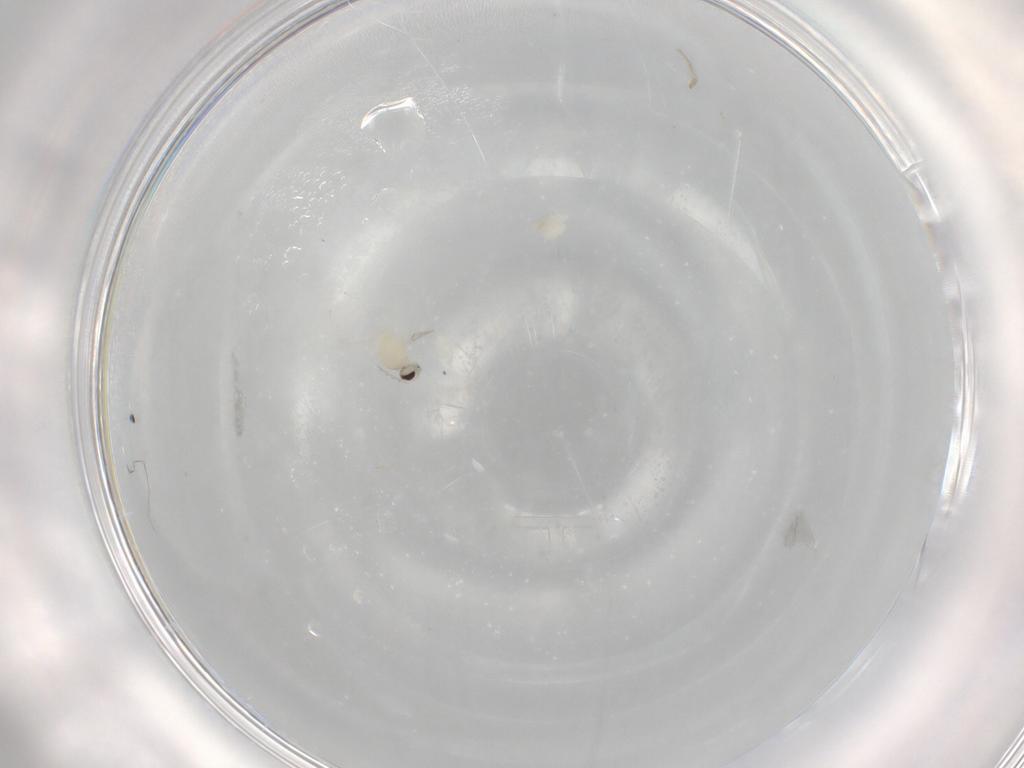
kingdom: Animalia
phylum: Arthropoda
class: Insecta
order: Diptera
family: Cecidomyiidae
